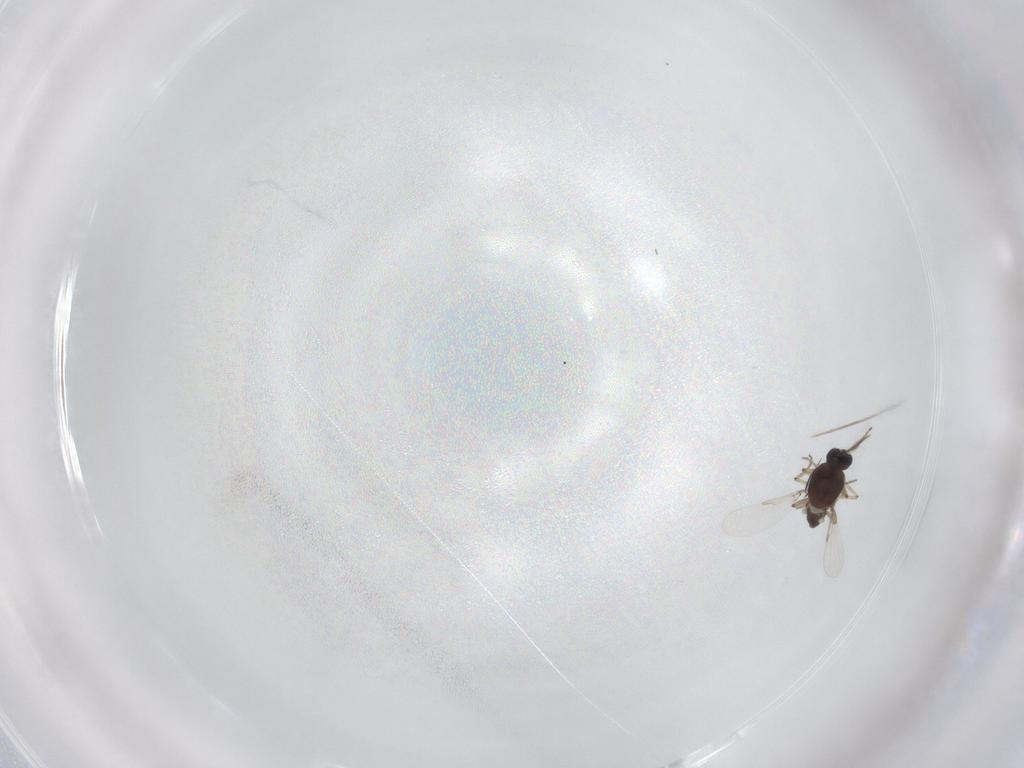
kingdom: Animalia
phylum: Arthropoda
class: Insecta
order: Diptera
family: Ceratopogonidae
